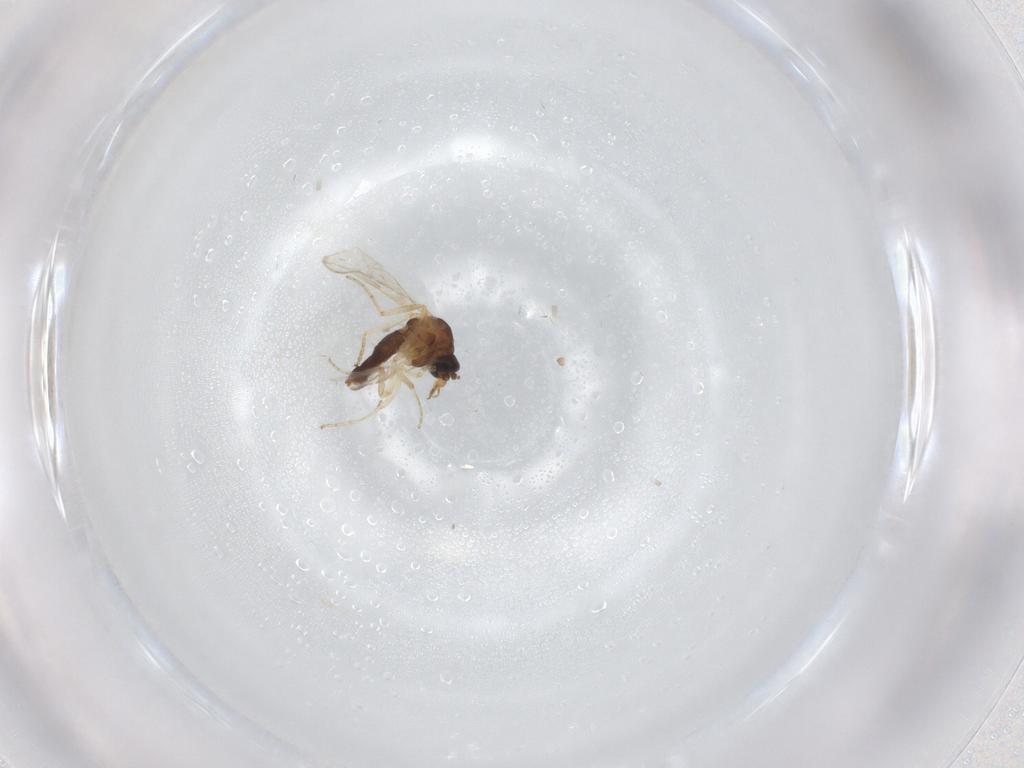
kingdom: Animalia
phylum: Arthropoda
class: Insecta
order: Diptera
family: Ceratopogonidae
